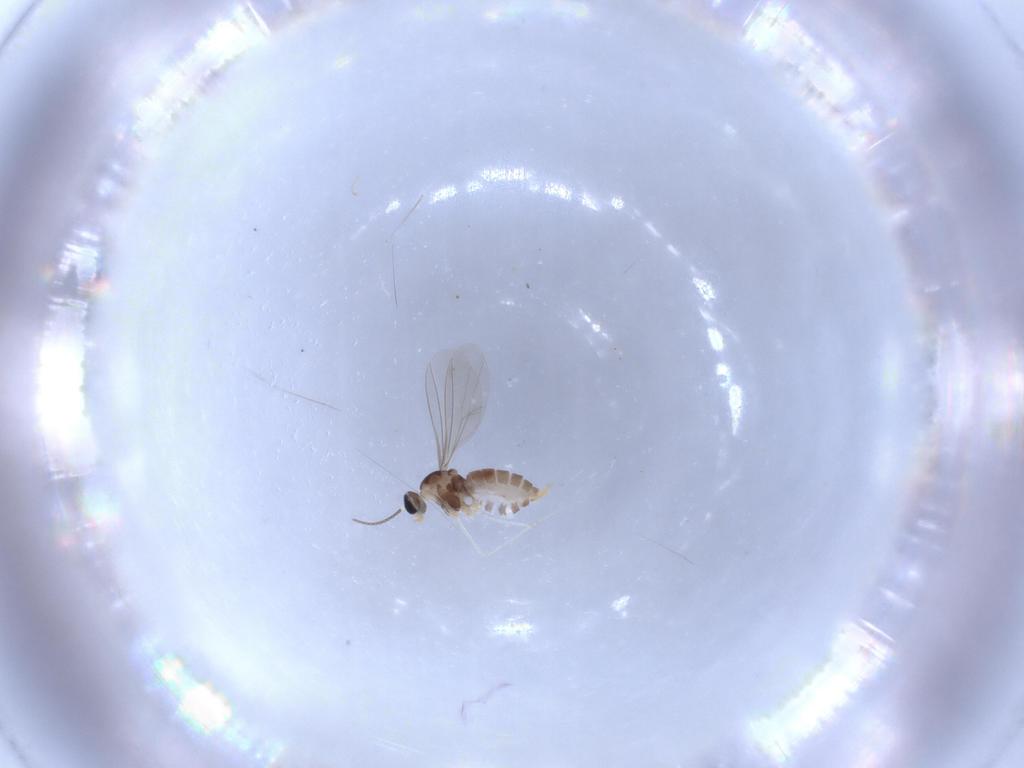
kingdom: Animalia
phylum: Arthropoda
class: Insecta
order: Diptera
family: Cecidomyiidae
